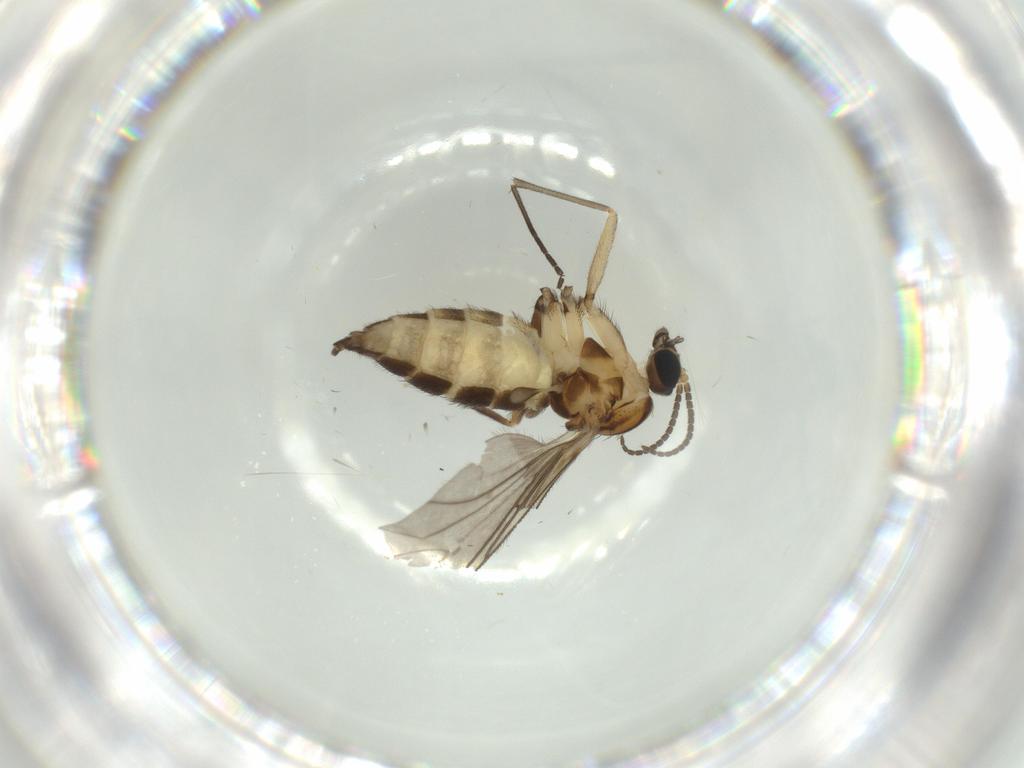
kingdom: Animalia
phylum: Arthropoda
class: Insecta
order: Diptera
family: Sciaridae
